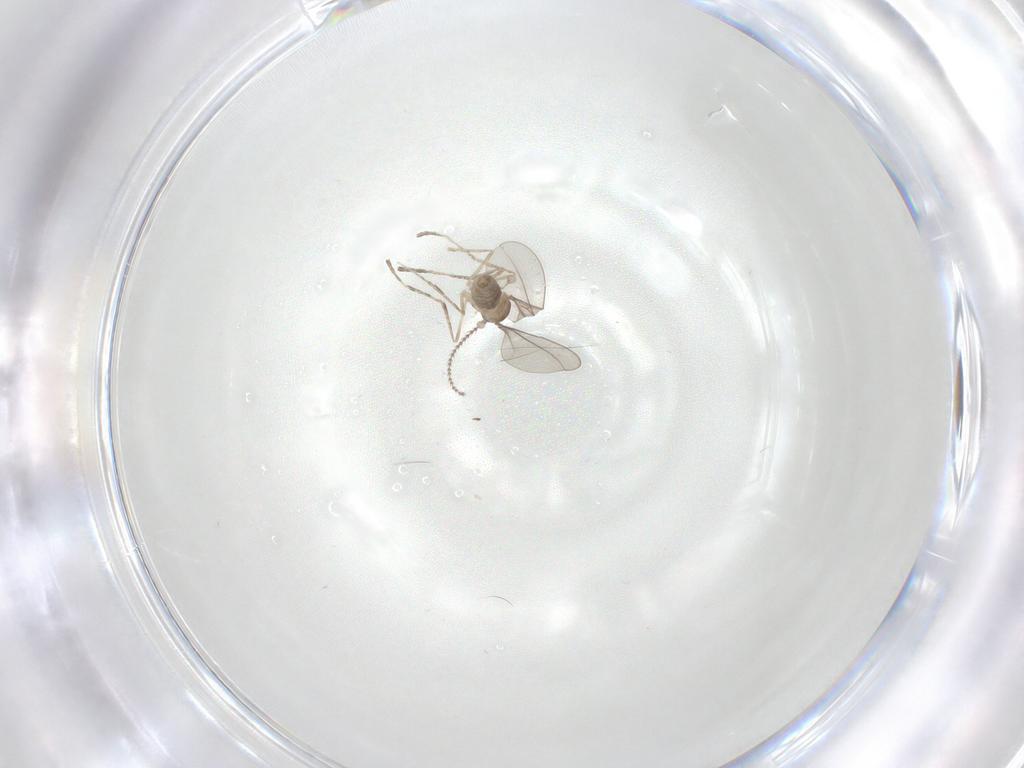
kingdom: Animalia
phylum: Arthropoda
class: Insecta
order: Diptera
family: Cecidomyiidae
